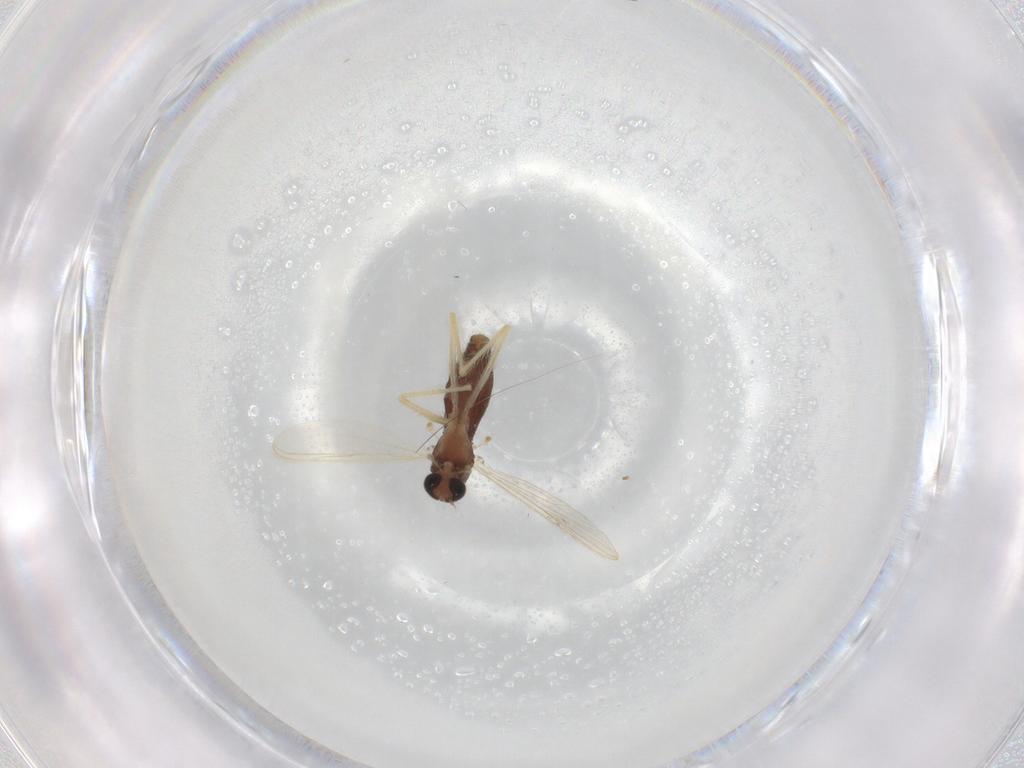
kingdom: Animalia
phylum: Arthropoda
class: Insecta
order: Diptera
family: Chironomidae
